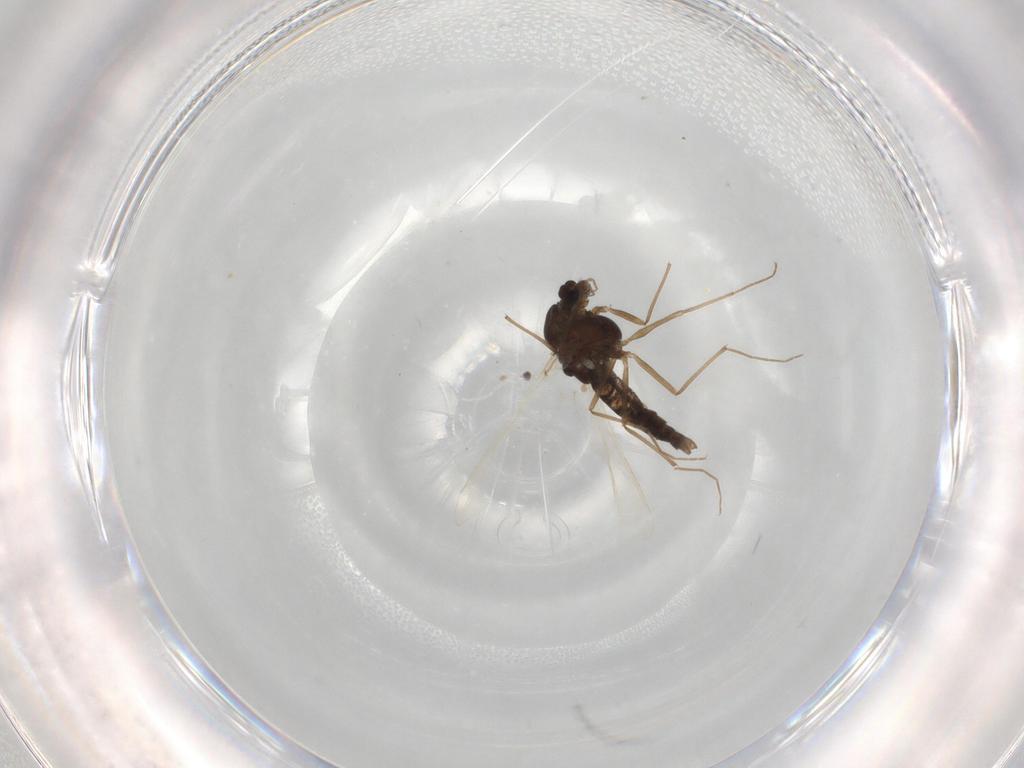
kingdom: Animalia
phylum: Arthropoda
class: Insecta
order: Diptera
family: Chironomidae
